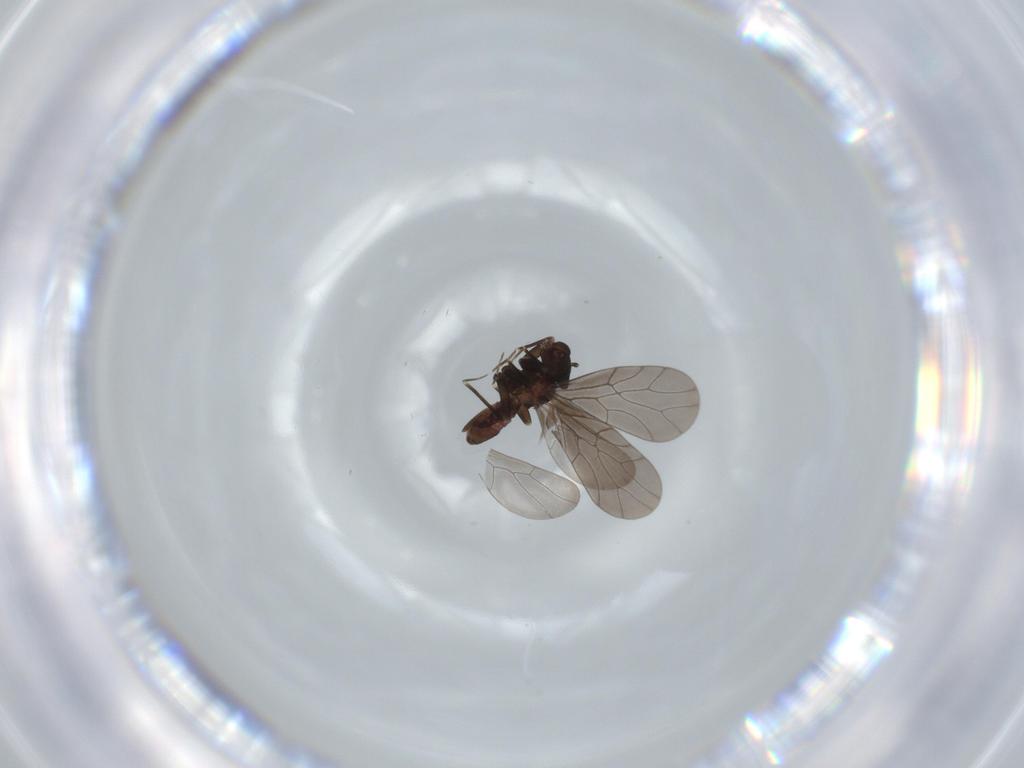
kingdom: Animalia
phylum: Arthropoda
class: Insecta
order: Psocodea
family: Lepidopsocidae
